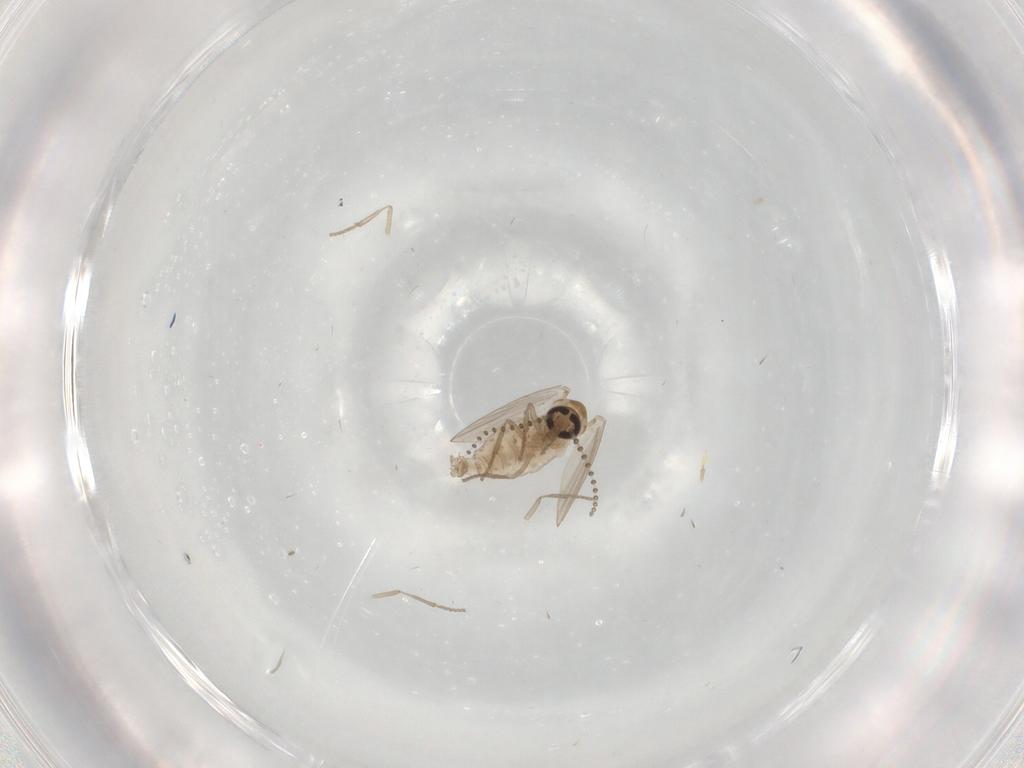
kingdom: Animalia
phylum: Arthropoda
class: Insecta
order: Diptera
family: Psychodidae
